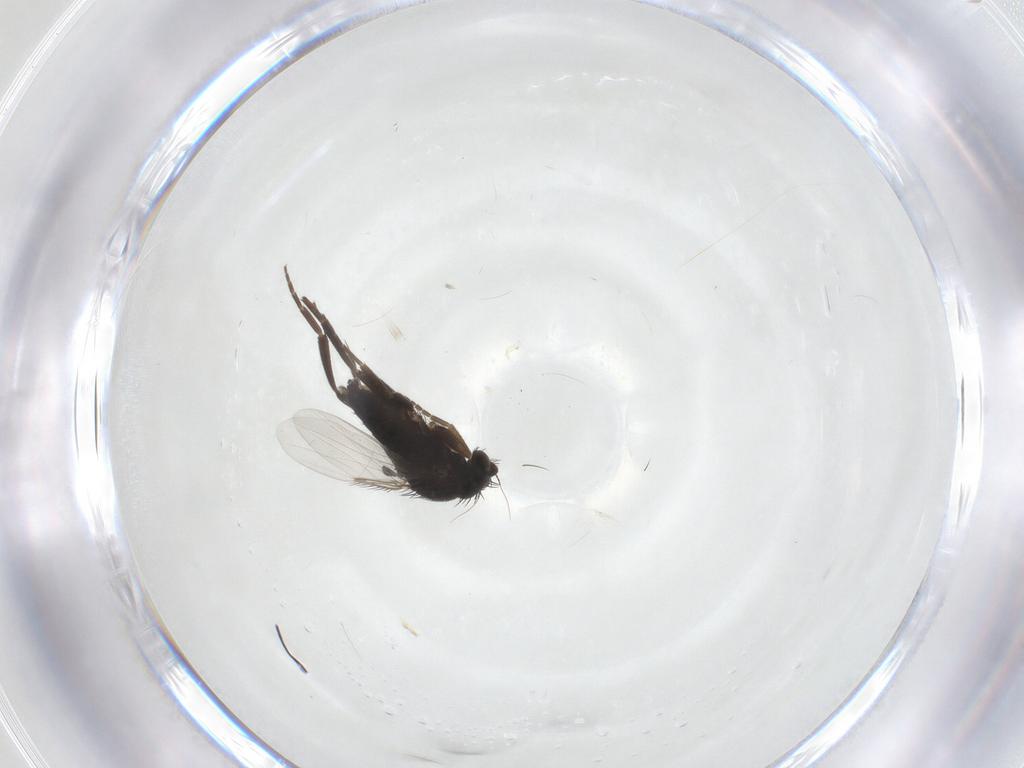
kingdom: Animalia
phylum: Arthropoda
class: Insecta
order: Diptera
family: Phoridae
